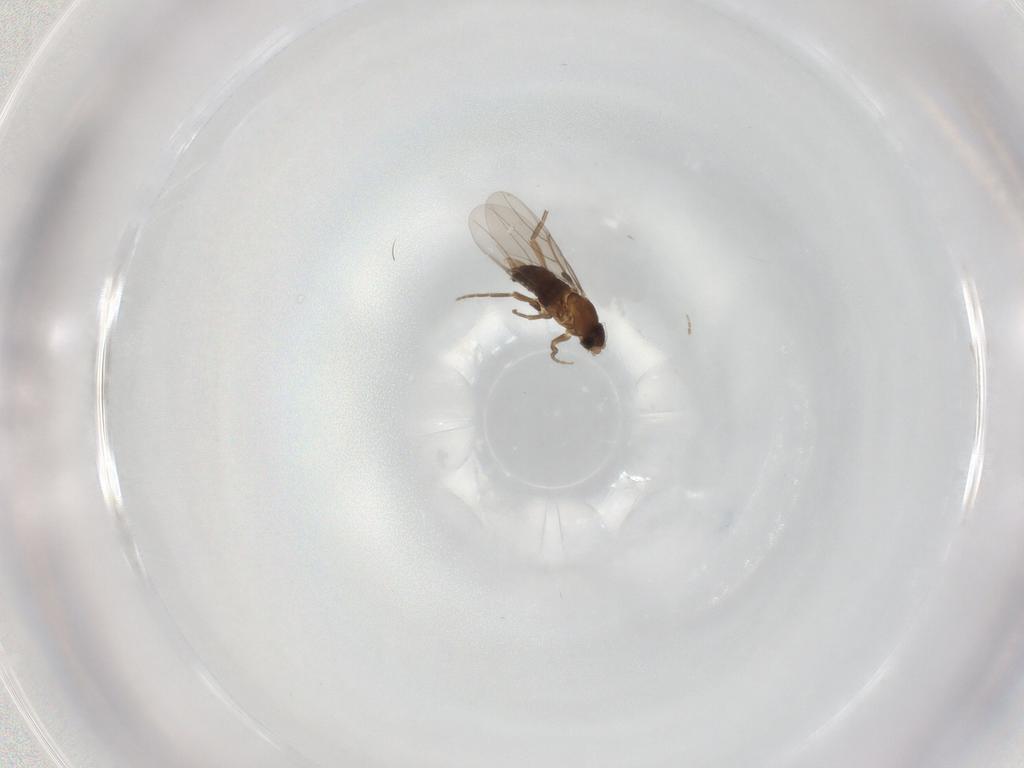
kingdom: Animalia
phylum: Arthropoda
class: Insecta
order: Diptera
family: Phoridae
